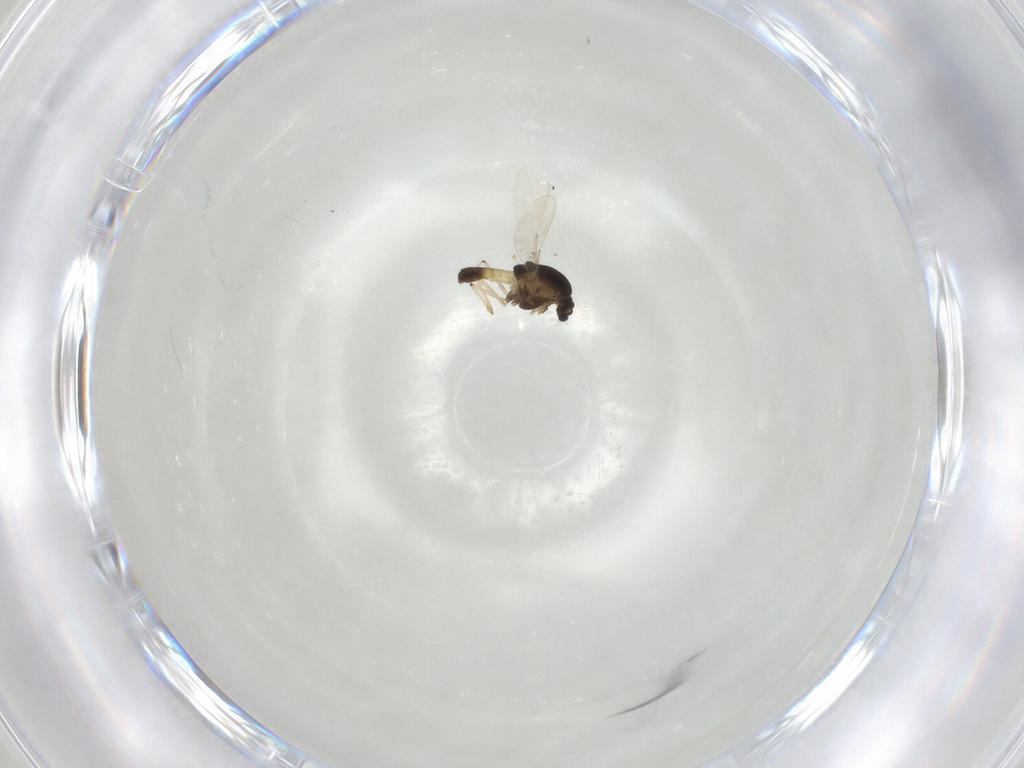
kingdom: Animalia
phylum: Arthropoda
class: Insecta
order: Diptera
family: Chironomidae
